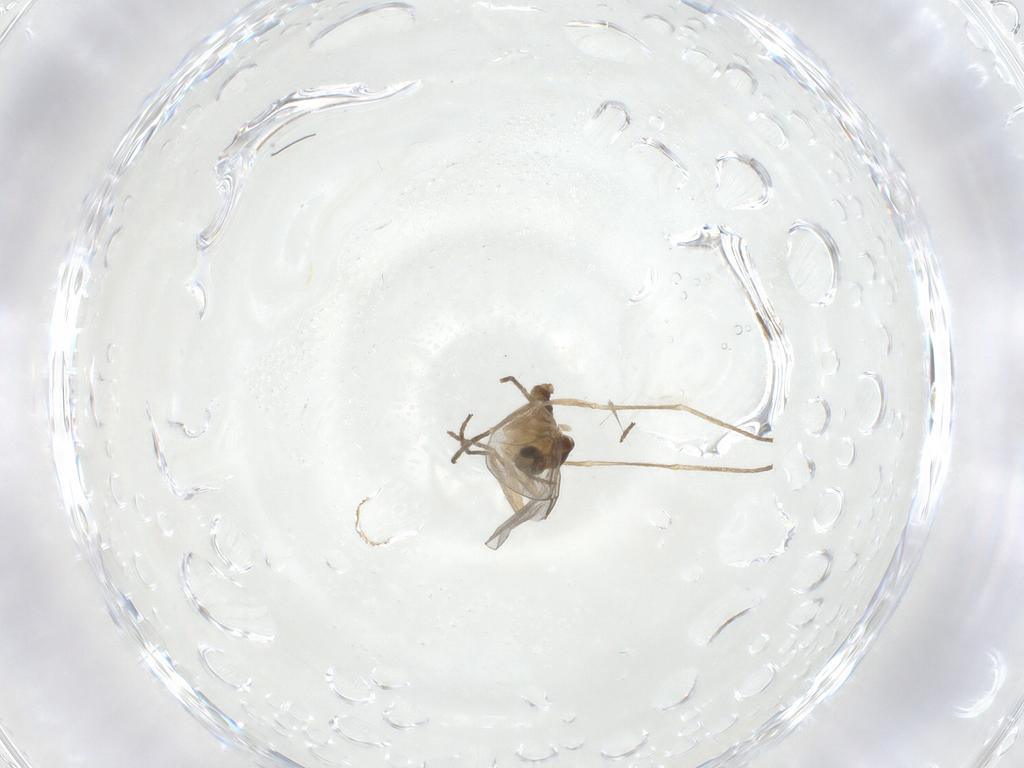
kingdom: Animalia
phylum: Arthropoda
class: Insecta
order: Diptera
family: Cecidomyiidae
